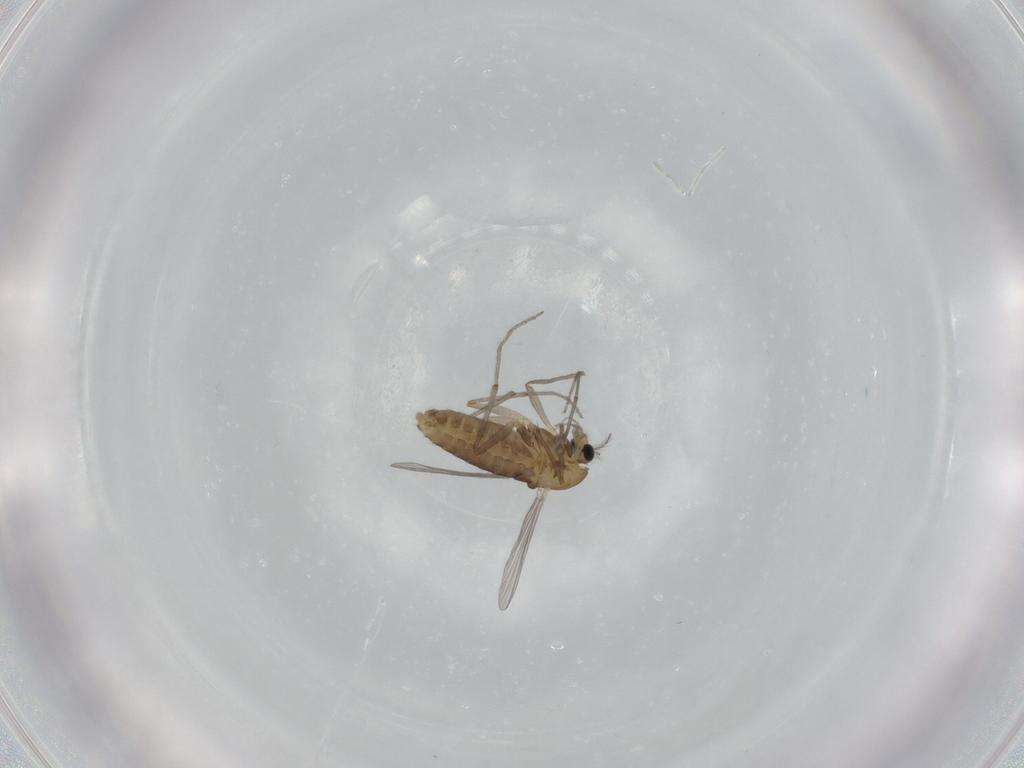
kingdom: Animalia
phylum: Arthropoda
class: Insecta
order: Diptera
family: Chironomidae
